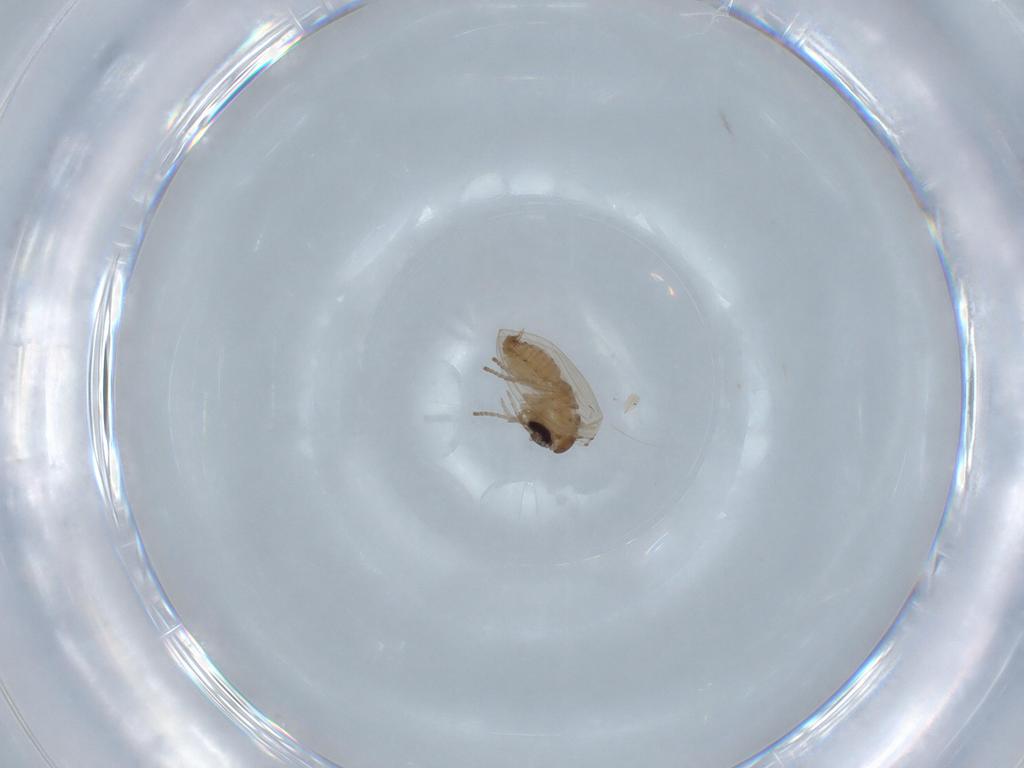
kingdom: Animalia
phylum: Arthropoda
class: Insecta
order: Diptera
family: Psychodidae
